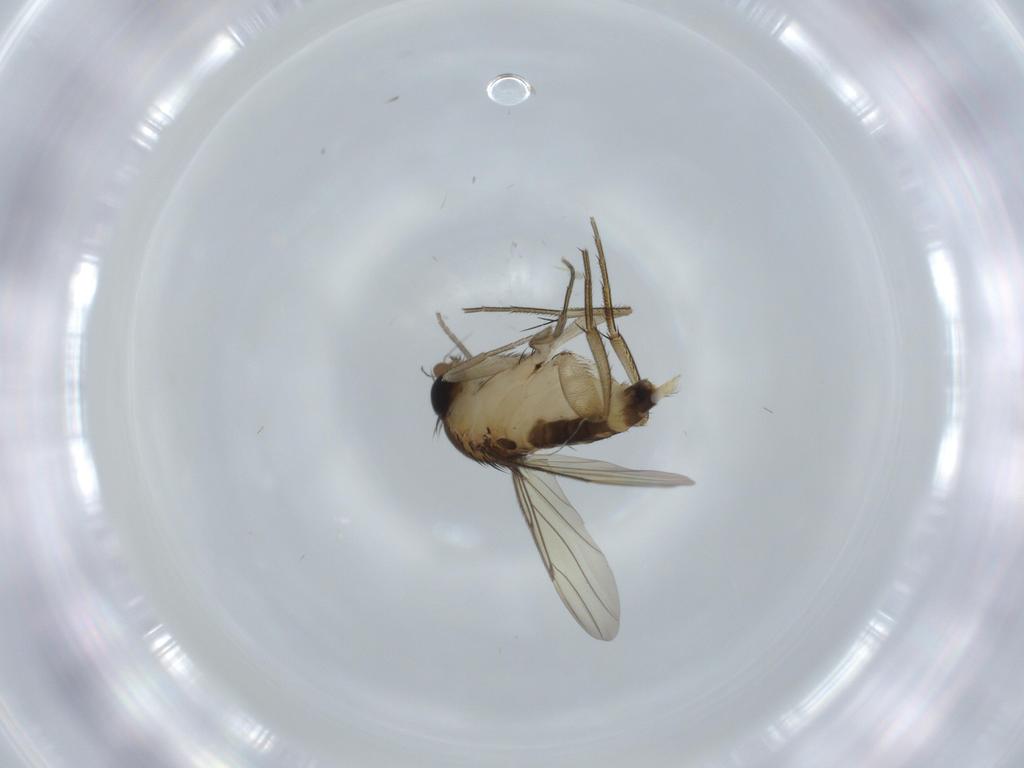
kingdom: Animalia
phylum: Arthropoda
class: Insecta
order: Diptera
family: Phoridae
